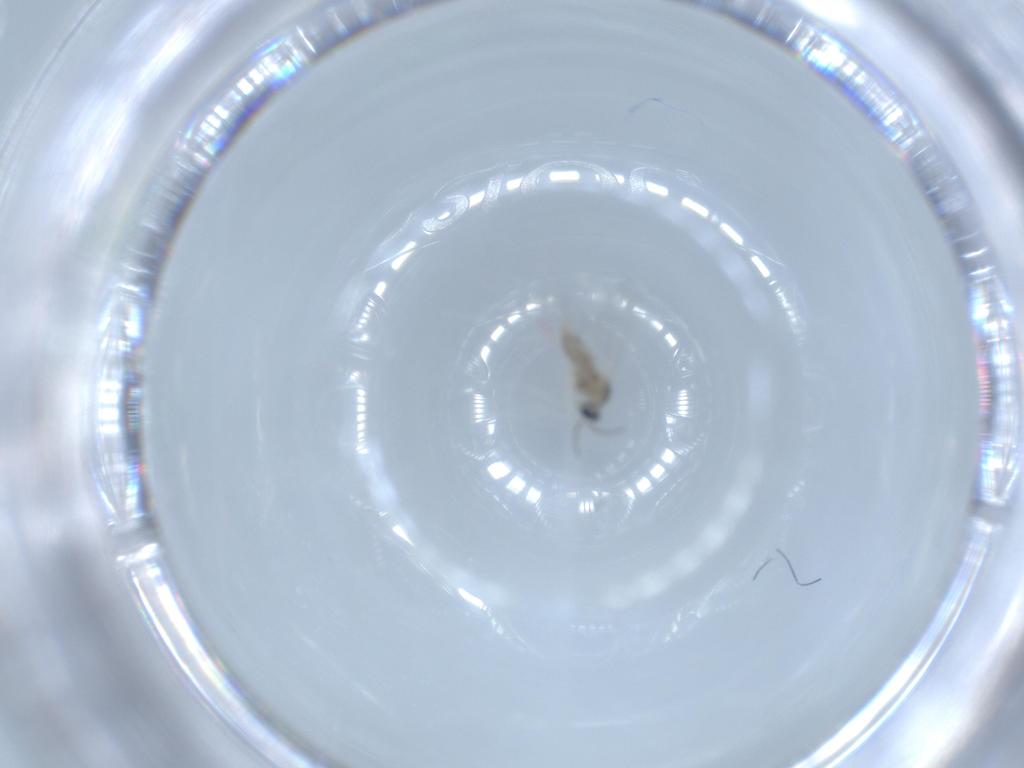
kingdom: Animalia
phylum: Arthropoda
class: Insecta
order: Diptera
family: Cecidomyiidae
